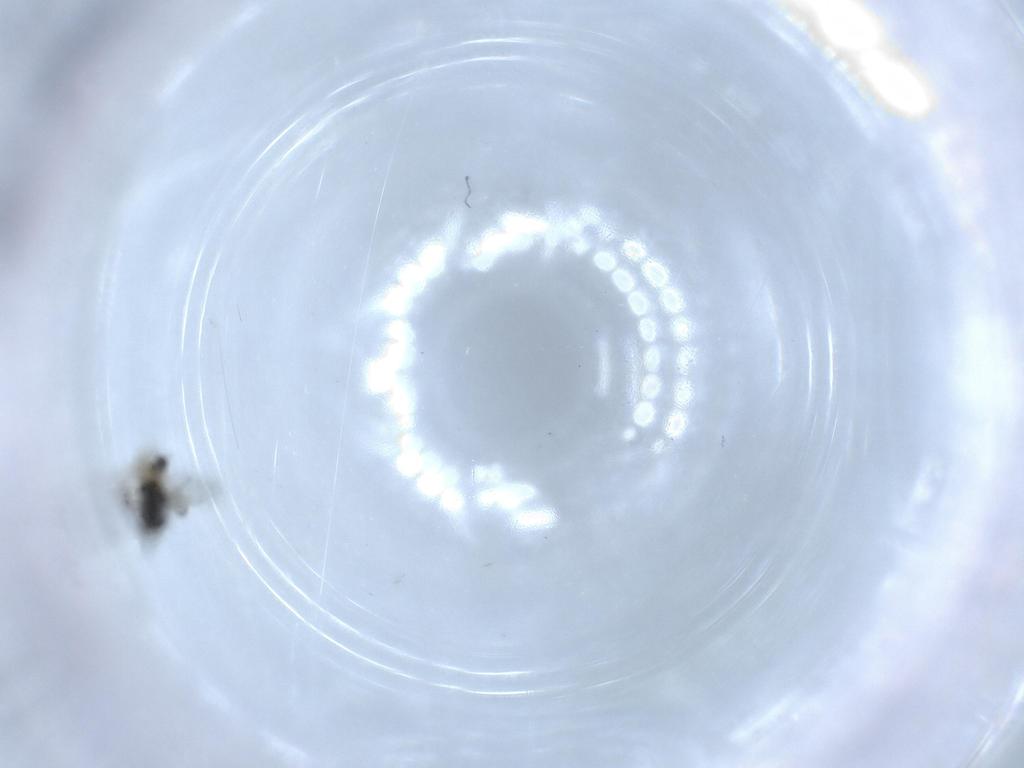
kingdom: Animalia
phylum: Arthropoda
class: Insecta
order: Hymenoptera
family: Scelionidae
